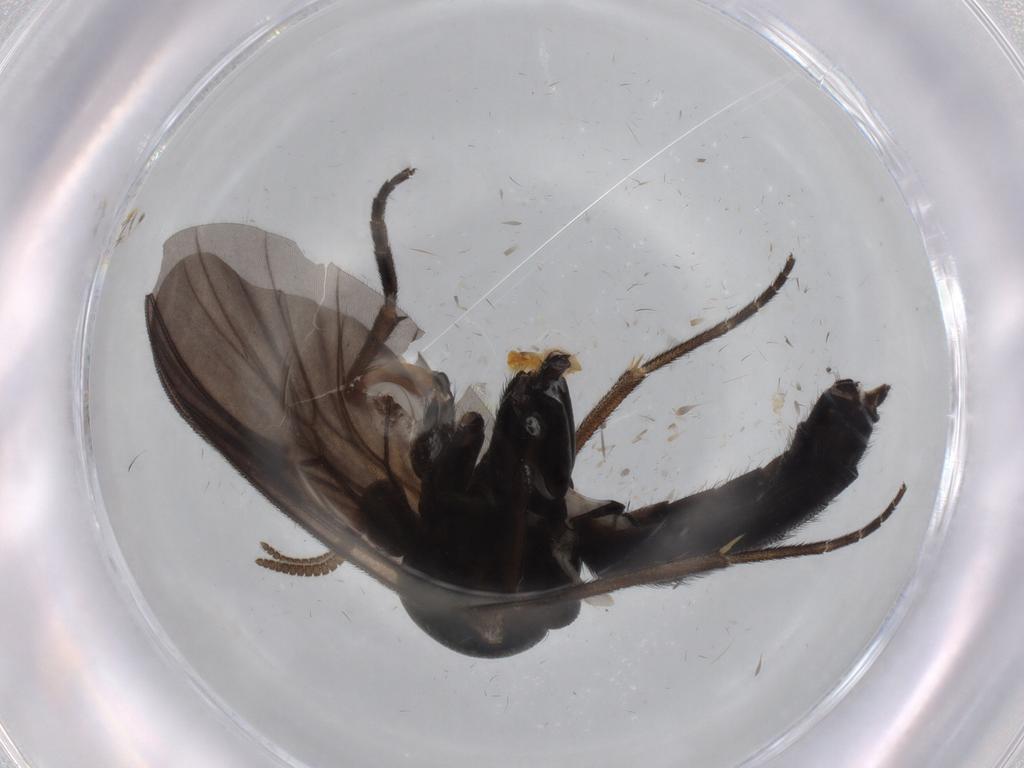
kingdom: Animalia
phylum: Arthropoda
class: Insecta
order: Diptera
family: Mycetophilidae
